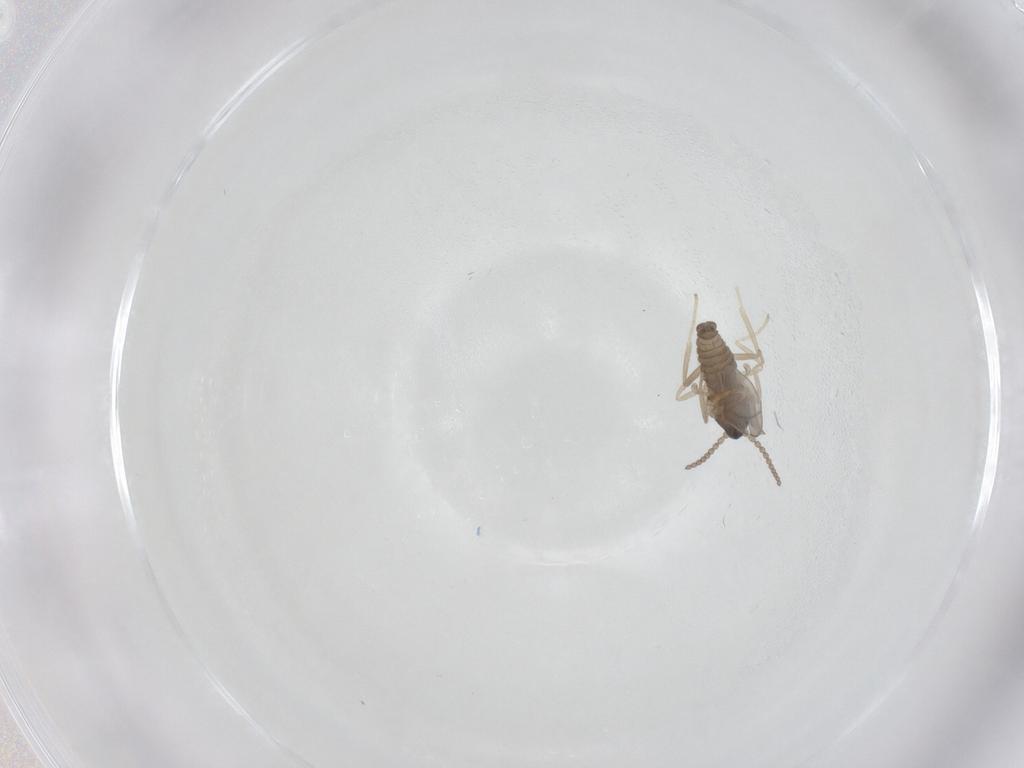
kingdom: Animalia
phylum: Arthropoda
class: Insecta
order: Diptera
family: Cecidomyiidae
